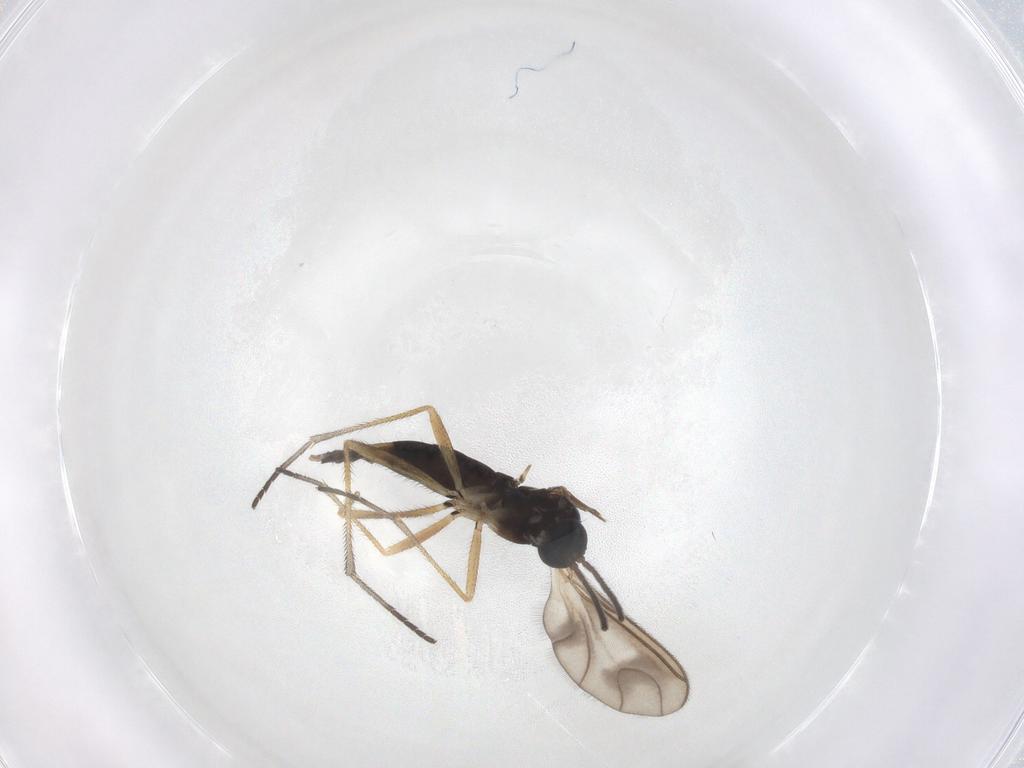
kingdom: Animalia
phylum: Arthropoda
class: Insecta
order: Diptera
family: Sciaridae
